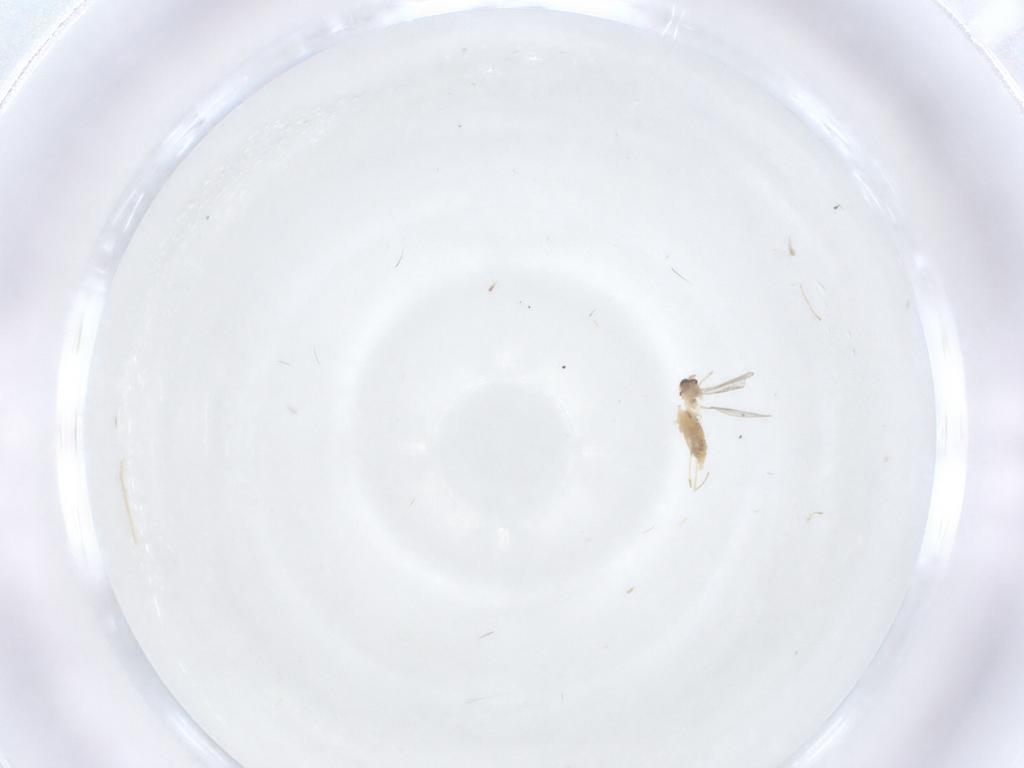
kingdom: Animalia
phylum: Arthropoda
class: Insecta
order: Diptera
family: Cecidomyiidae
